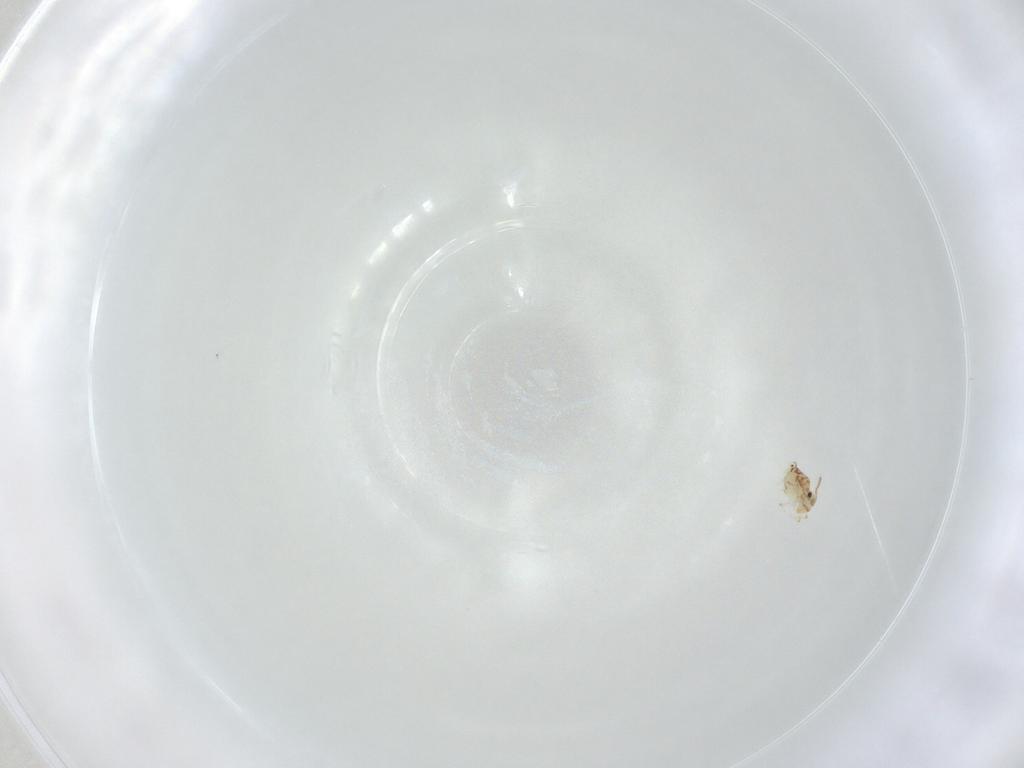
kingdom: Animalia
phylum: Arthropoda
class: Collembola
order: Symphypleona
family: Bourletiellidae
